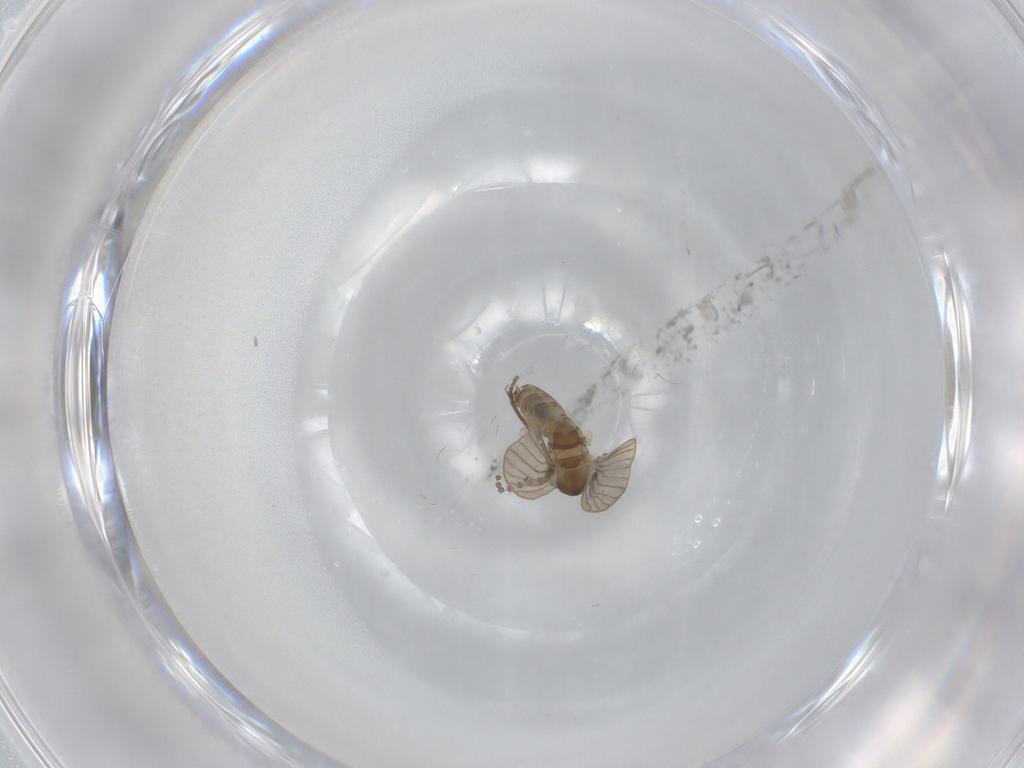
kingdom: Animalia
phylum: Arthropoda
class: Insecta
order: Diptera
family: Psychodidae
